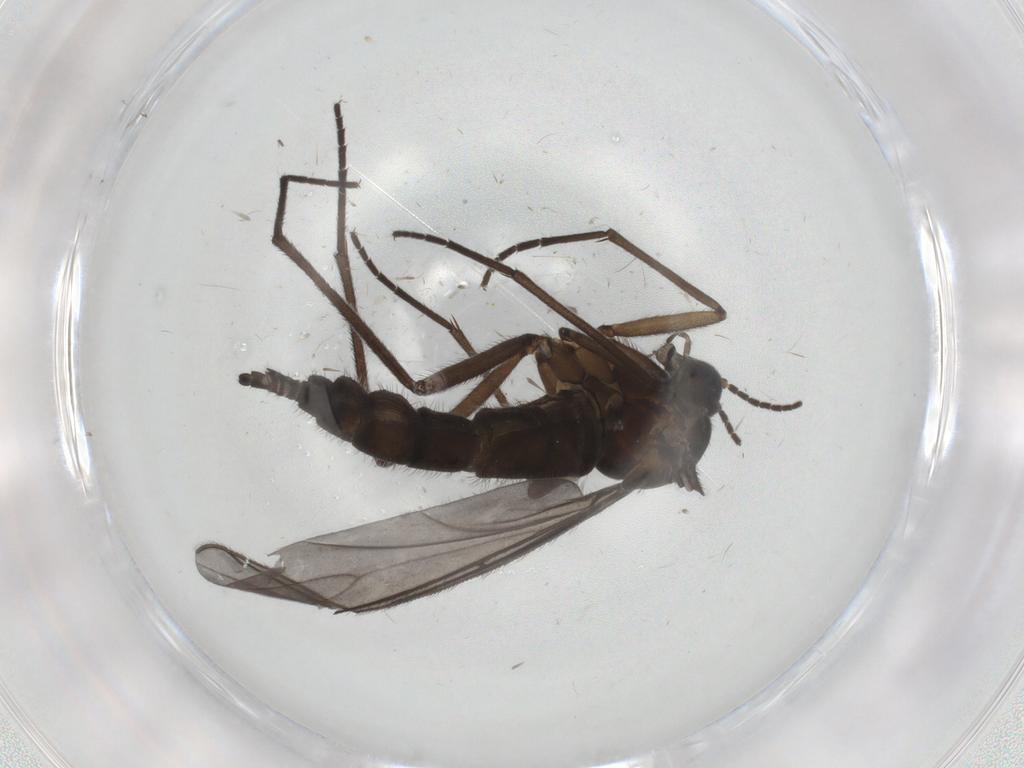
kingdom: Animalia
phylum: Arthropoda
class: Insecta
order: Diptera
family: Sciaridae
